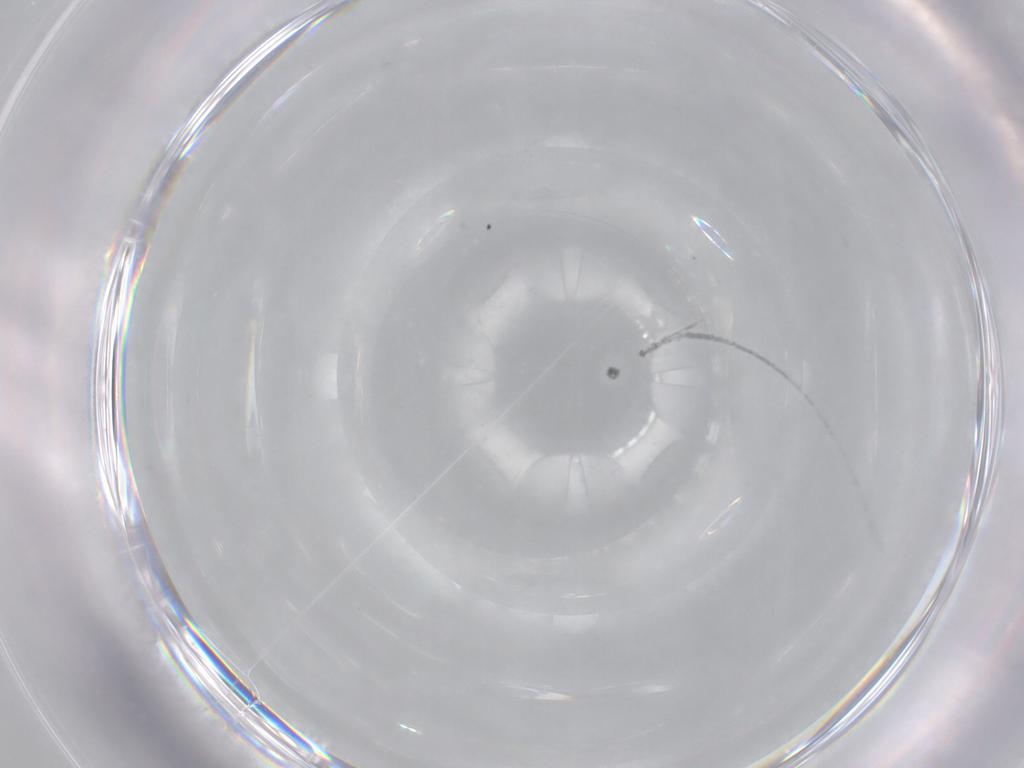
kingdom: Animalia
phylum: Arthropoda
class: Insecta
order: Blattodea
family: Ectobiidae
